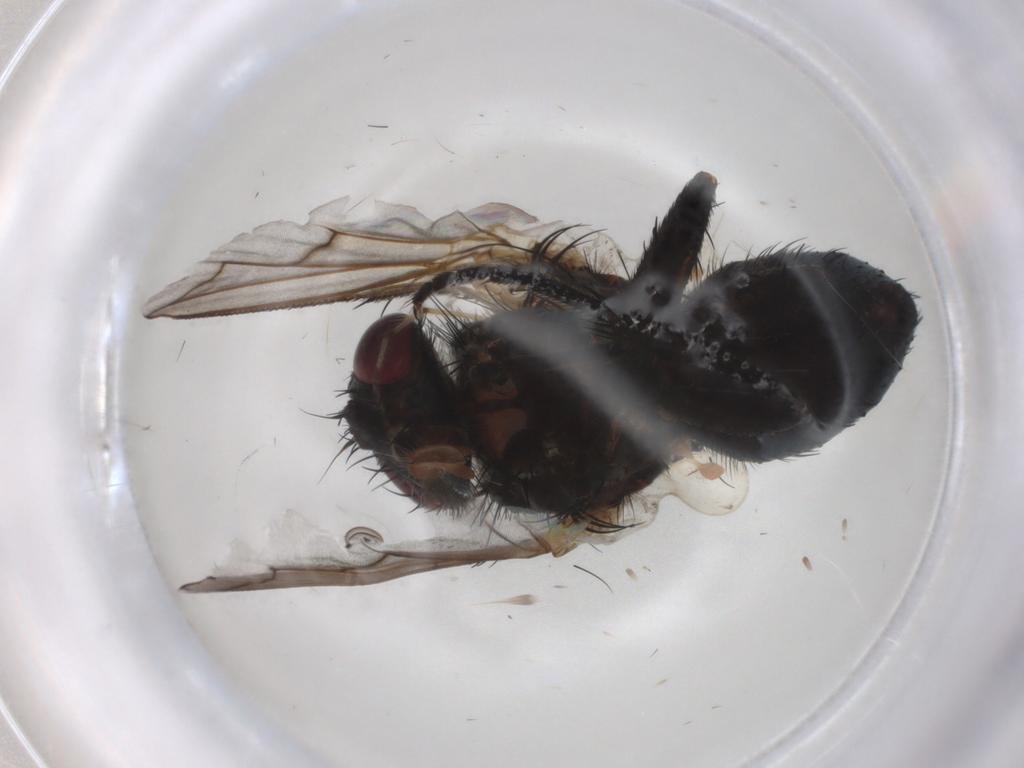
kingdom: Animalia
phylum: Arthropoda
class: Insecta
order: Diptera
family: Tachinidae
